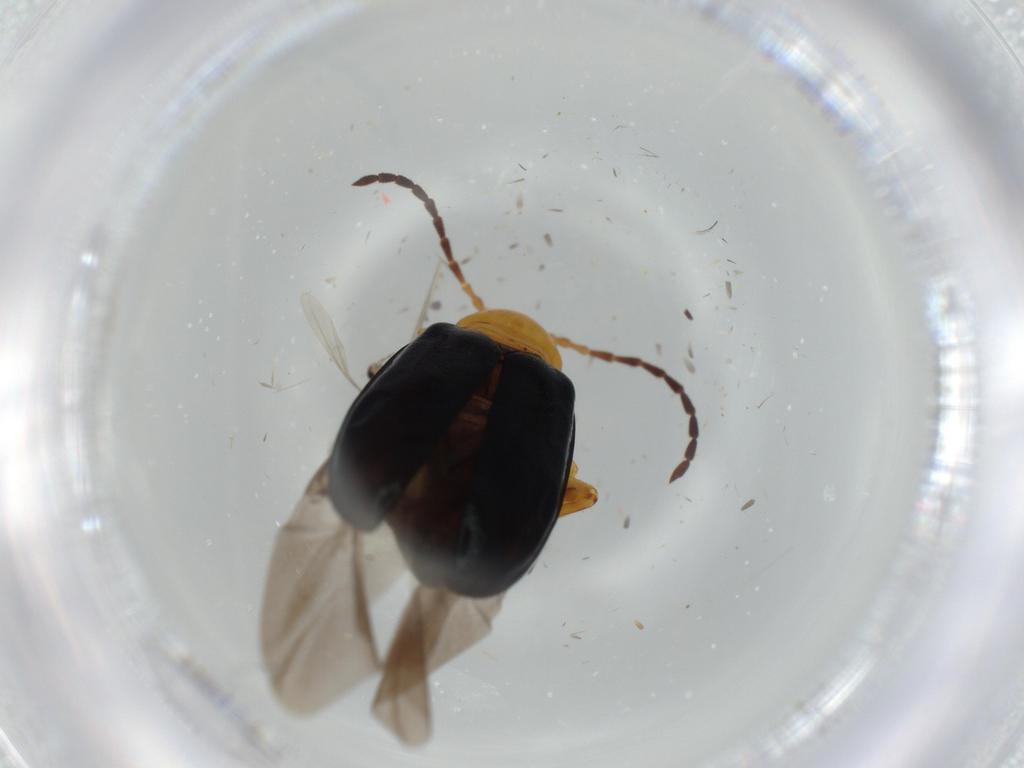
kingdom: Animalia
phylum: Arthropoda
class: Insecta
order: Coleoptera
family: Chrysomelidae
